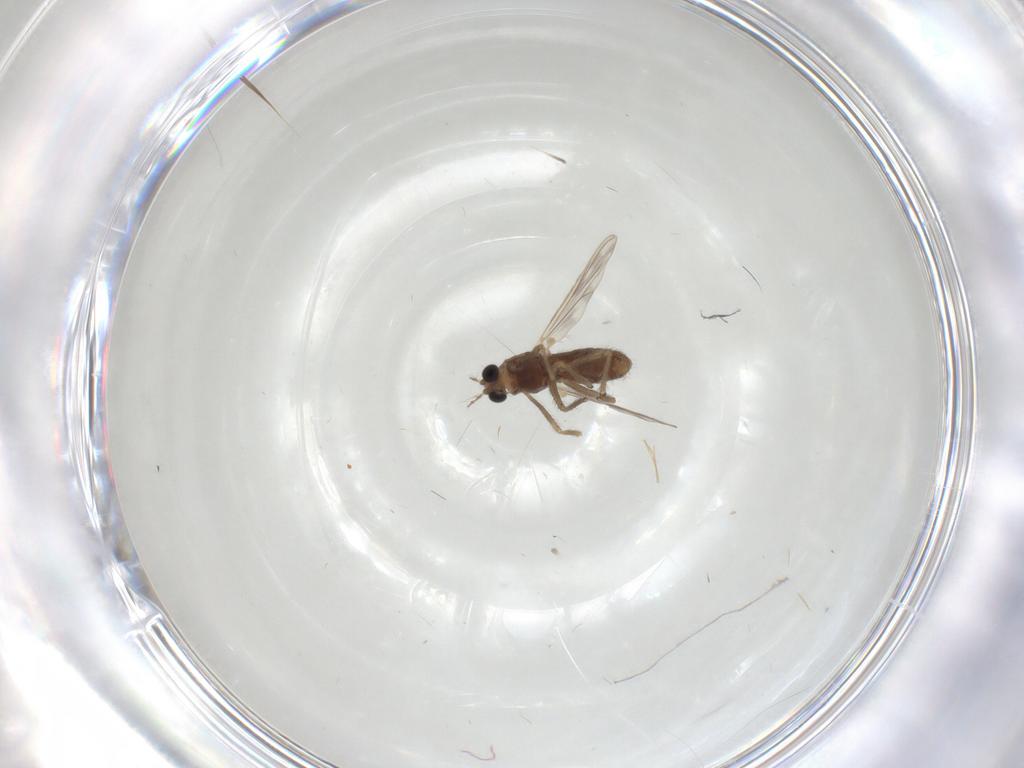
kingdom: Animalia
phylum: Arthropoda
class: Insecta
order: Diptera
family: Chironomidae
